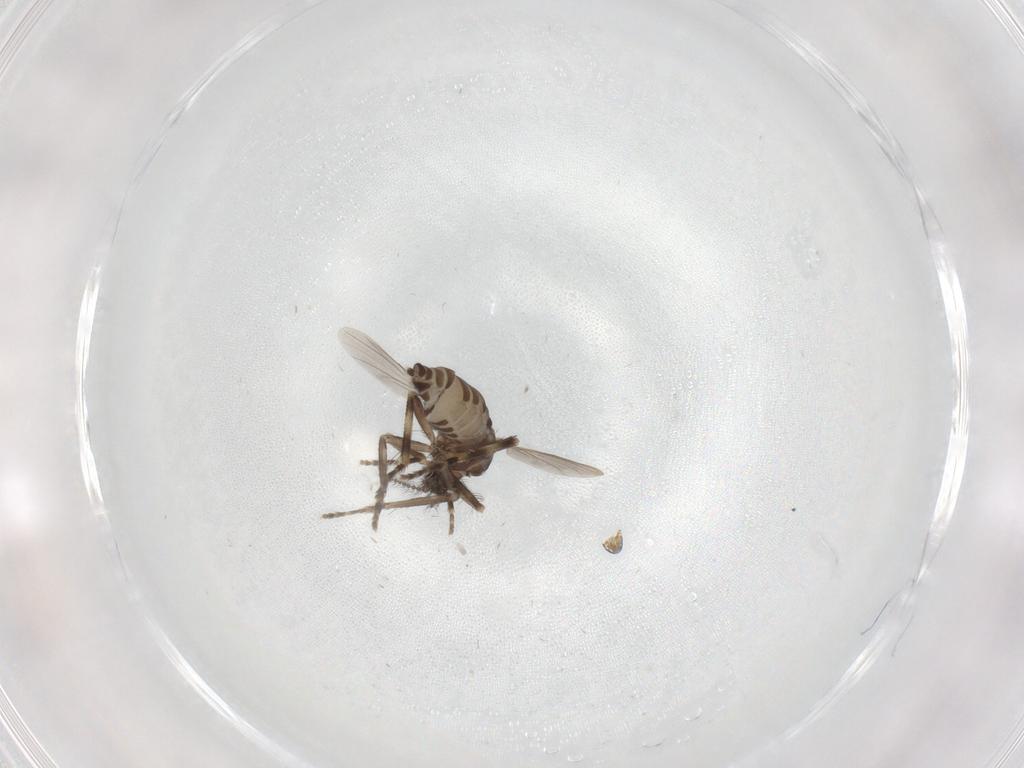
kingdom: Animalia
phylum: Arthropoda
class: Insecta
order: Diptera
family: Ceratopogonidae
